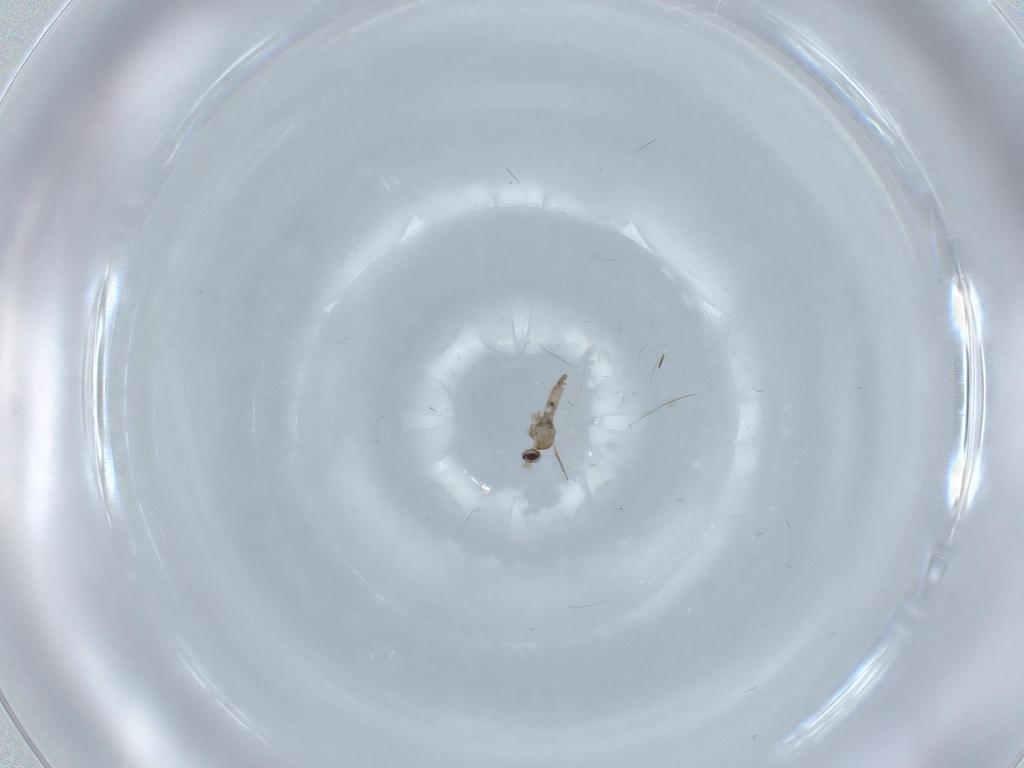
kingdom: Animalia
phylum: Arthropoda
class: Insecta
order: Diptera
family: Cecidomyiidae
